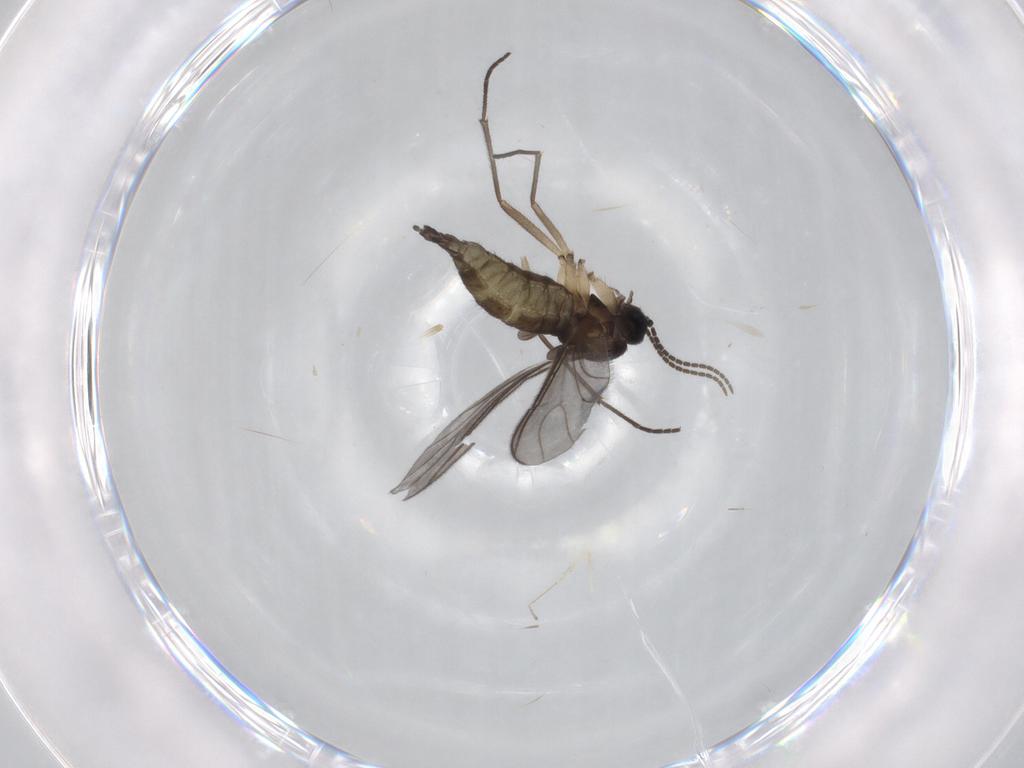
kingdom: Animalia
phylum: Arthropoda
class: Insecta
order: Diptera
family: Sciaridae
